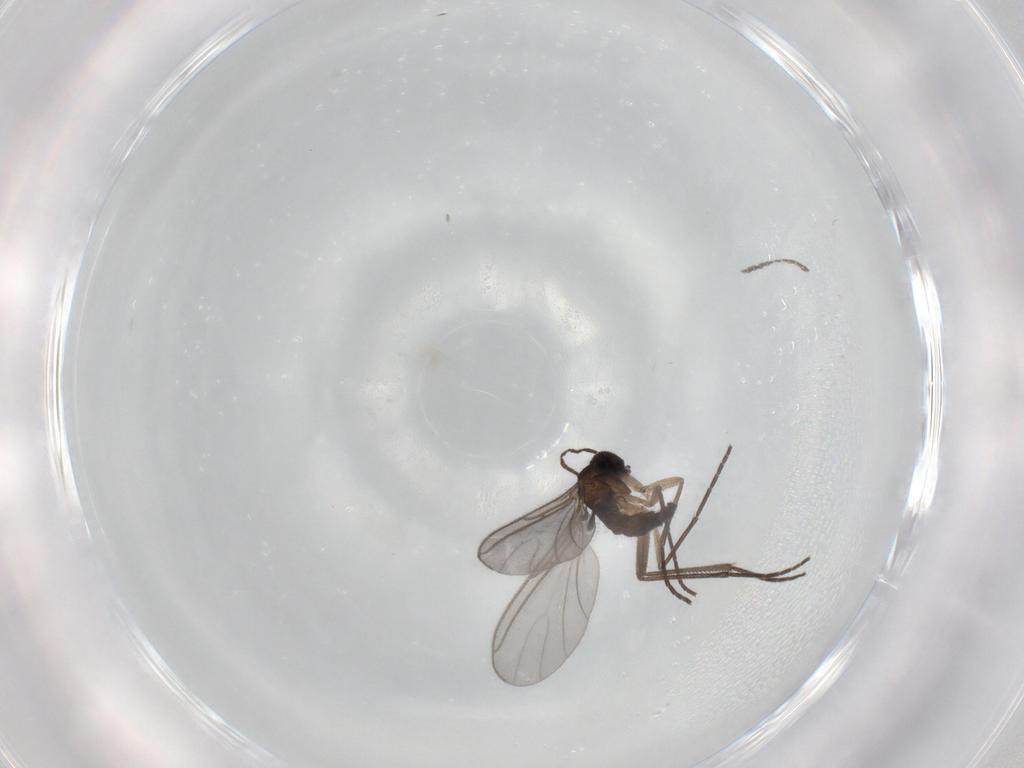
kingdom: Animalia
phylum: Arthropoda
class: Insecta
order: Diptera
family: Sciaridae
